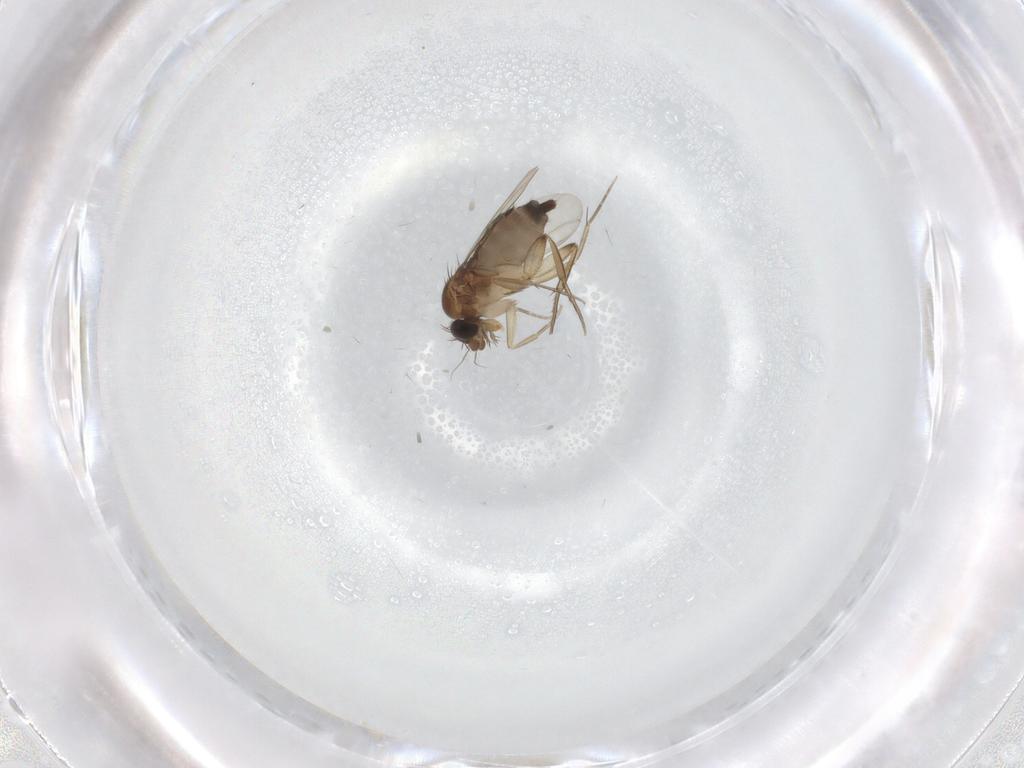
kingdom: Animalia
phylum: Arthropoda
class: Insecta
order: Diptera
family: Phoridae
